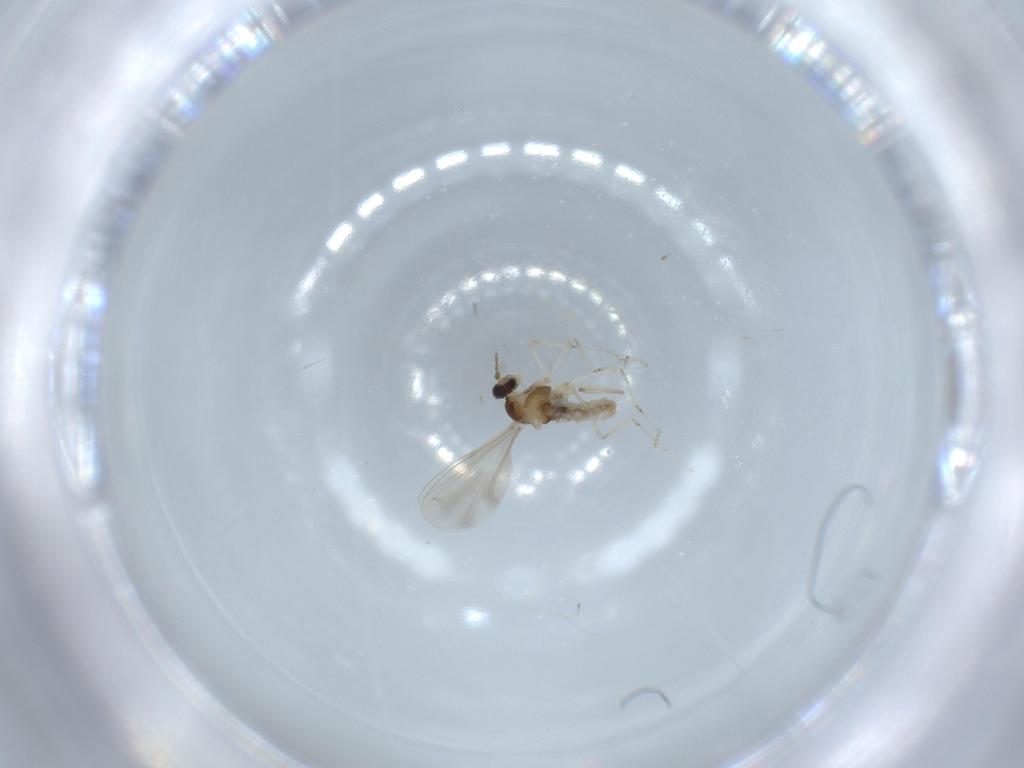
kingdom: Animalia
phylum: Arthropoda
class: Insecta
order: Diptera
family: Cecidomyiidae
